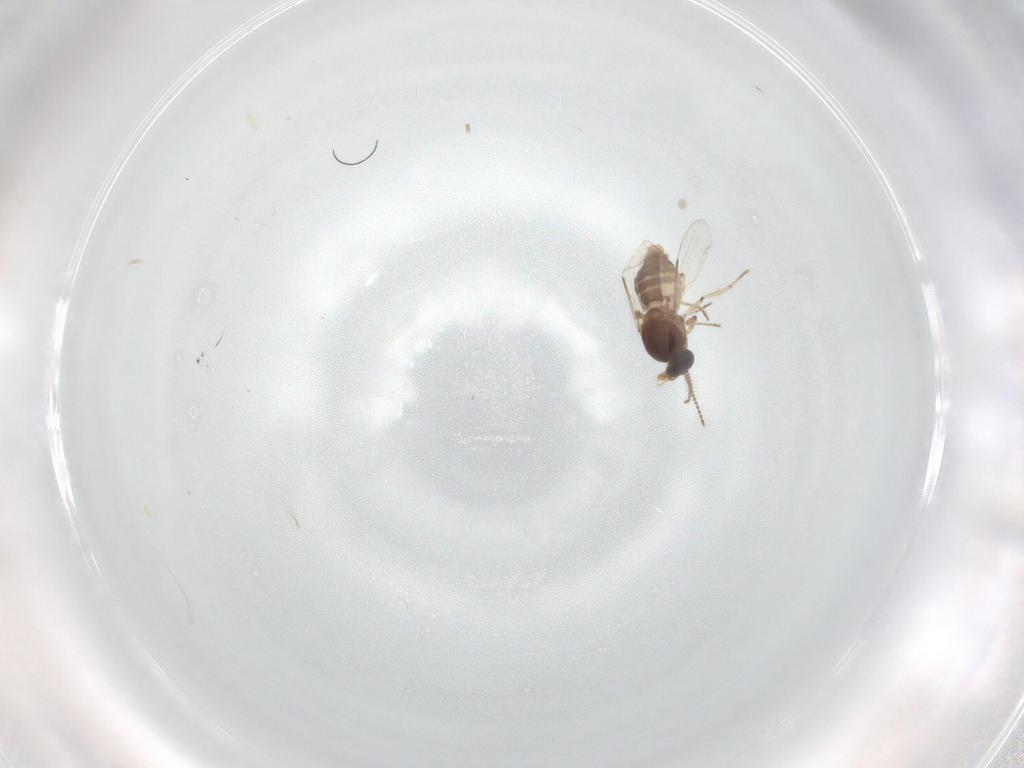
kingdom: Animalia
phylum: Arthropoda
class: Insecta
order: Diptera
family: Ceratopogonidae
